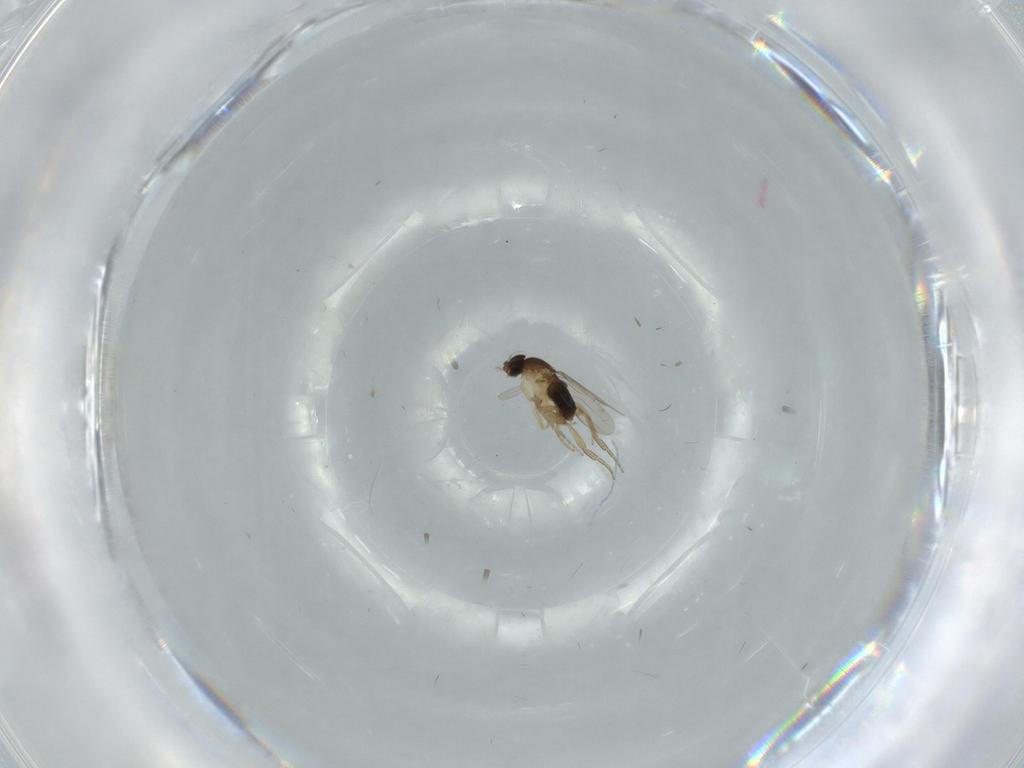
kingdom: Animalia
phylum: Arthropoda
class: Insecta
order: Diptera
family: Phoridae
